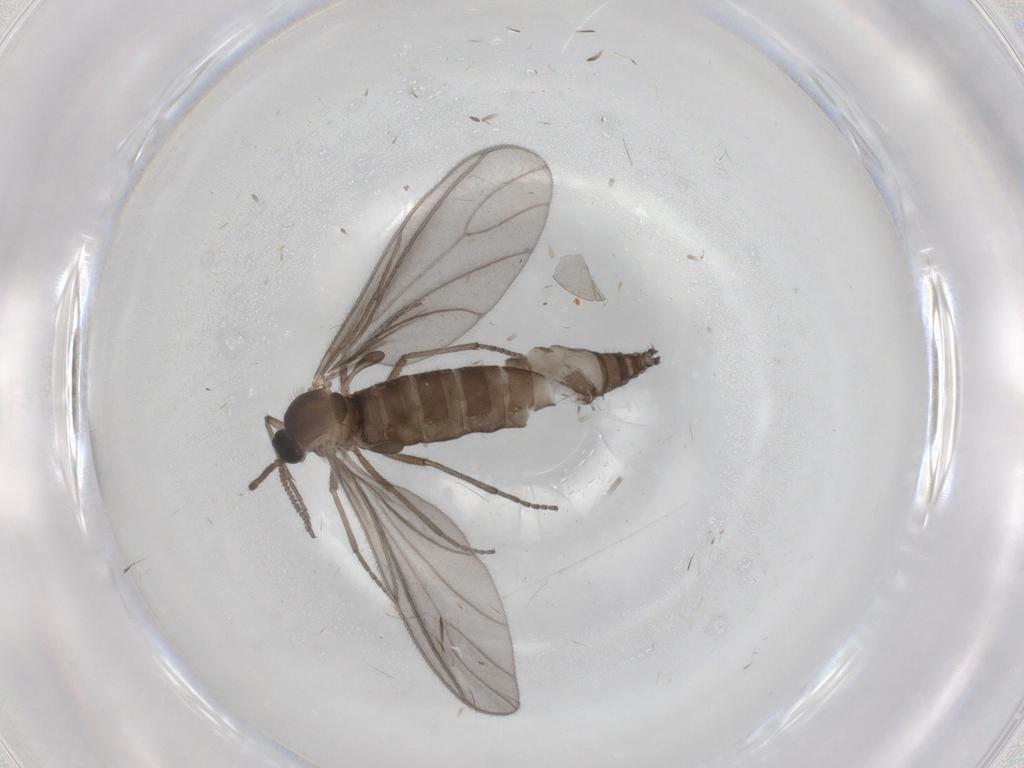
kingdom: Animalia
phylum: Arthropoda
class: Insecta
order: Diptera
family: Sciaridae
